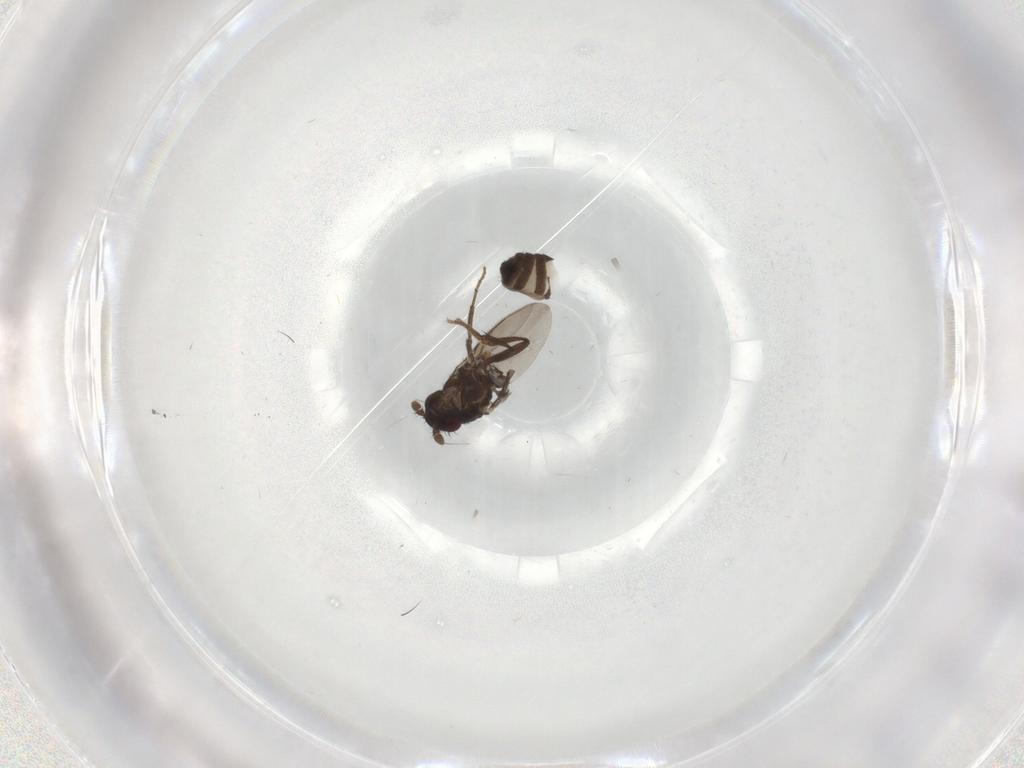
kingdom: Animalia
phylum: Arthropoda
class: Insecta
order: Diptera
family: Sphaeroceridae
